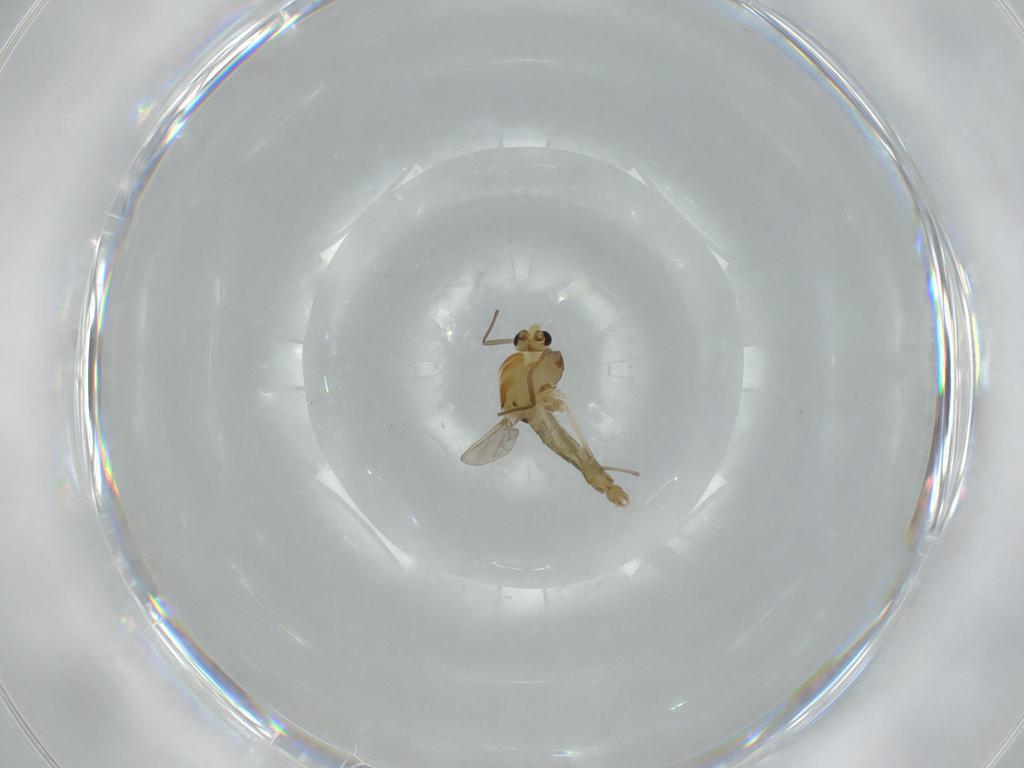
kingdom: Animalia
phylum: Arthropoda
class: Insecta
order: Diptera
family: Chironomidae
